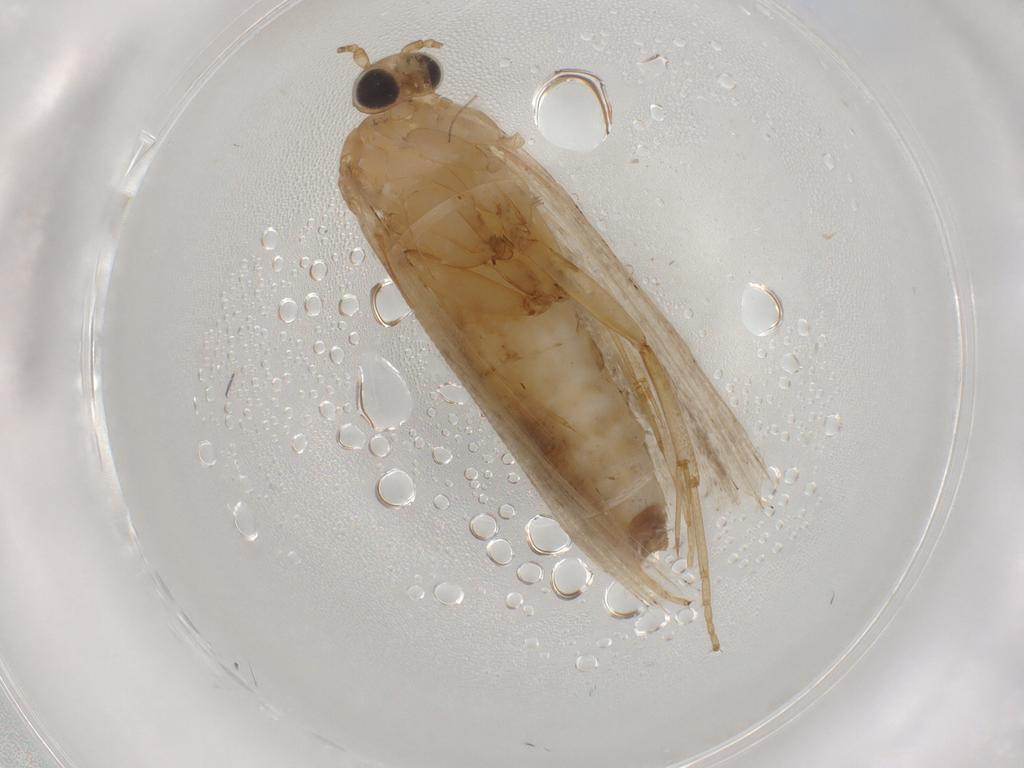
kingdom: Animalia
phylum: Arthropoda
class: Insecta
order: Lepidoptera
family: Tortricidae
